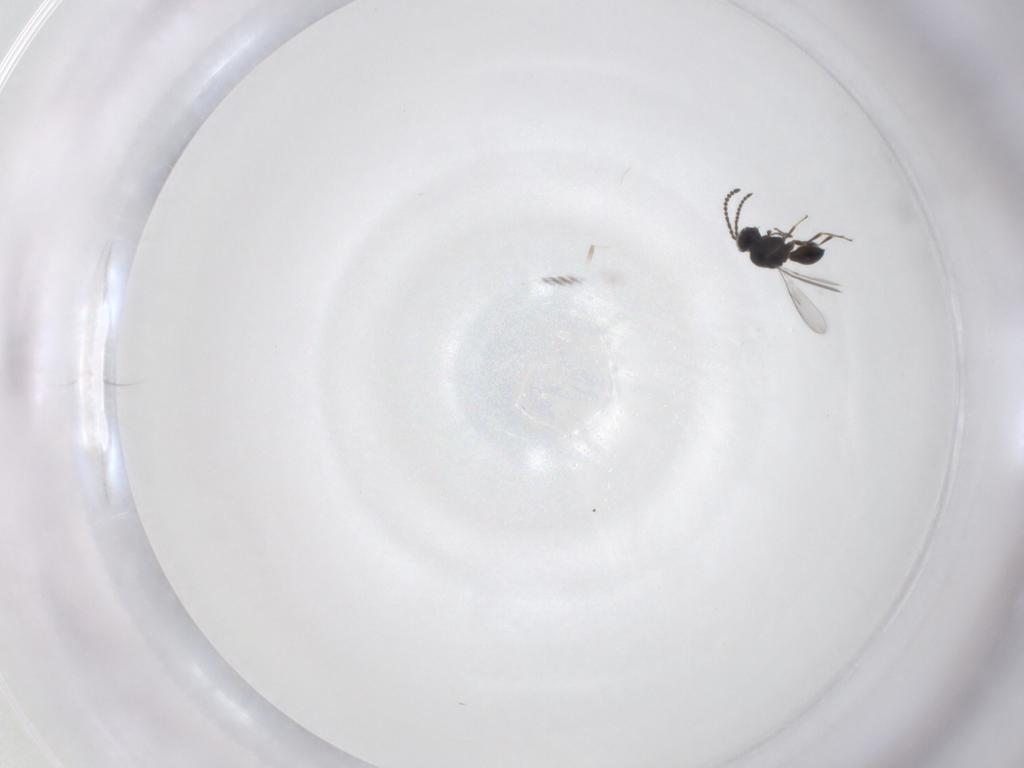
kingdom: Animalia
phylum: Arthropoda
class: Insecta
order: Hymenoptera
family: Scelionidae
